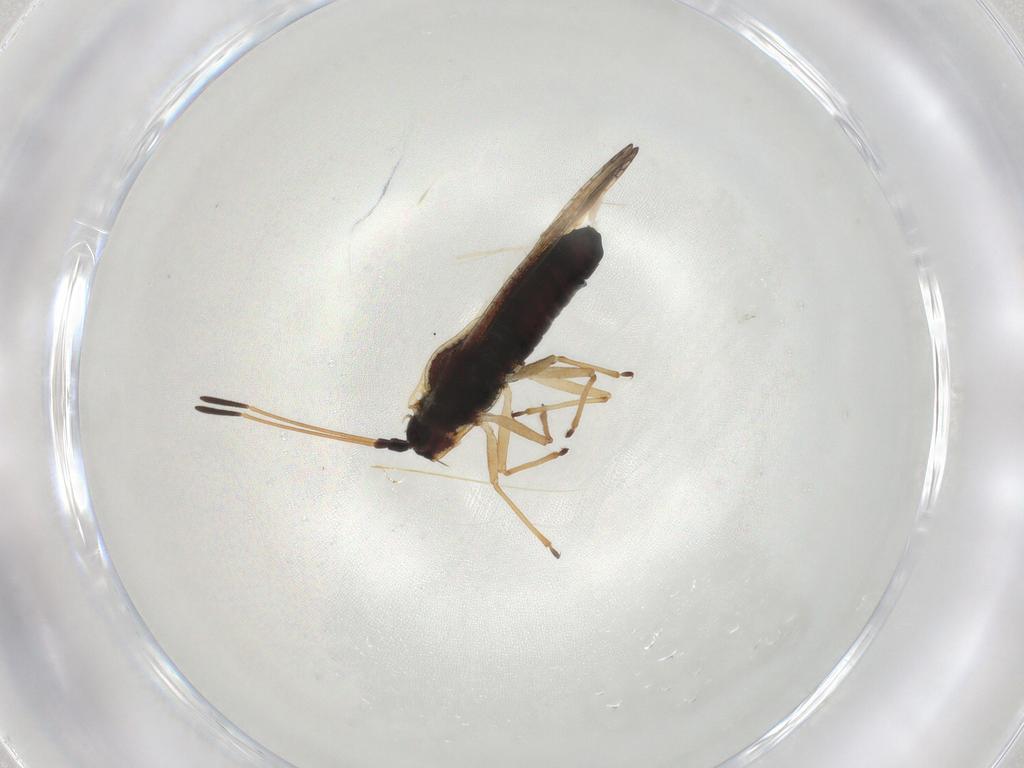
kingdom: Animalia
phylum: Arthropoda
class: Insecta
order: Hemiptera
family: Tingidae
